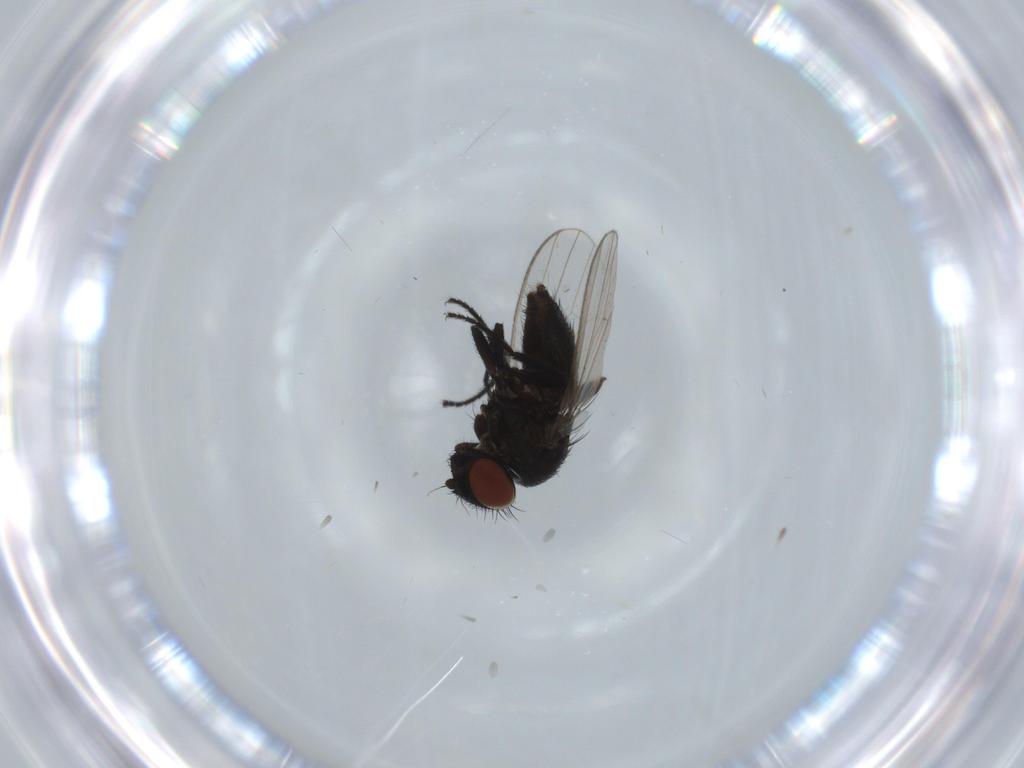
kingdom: Animalia
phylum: Arthropoda
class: Insecta
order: Diptera
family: Milichiidae
